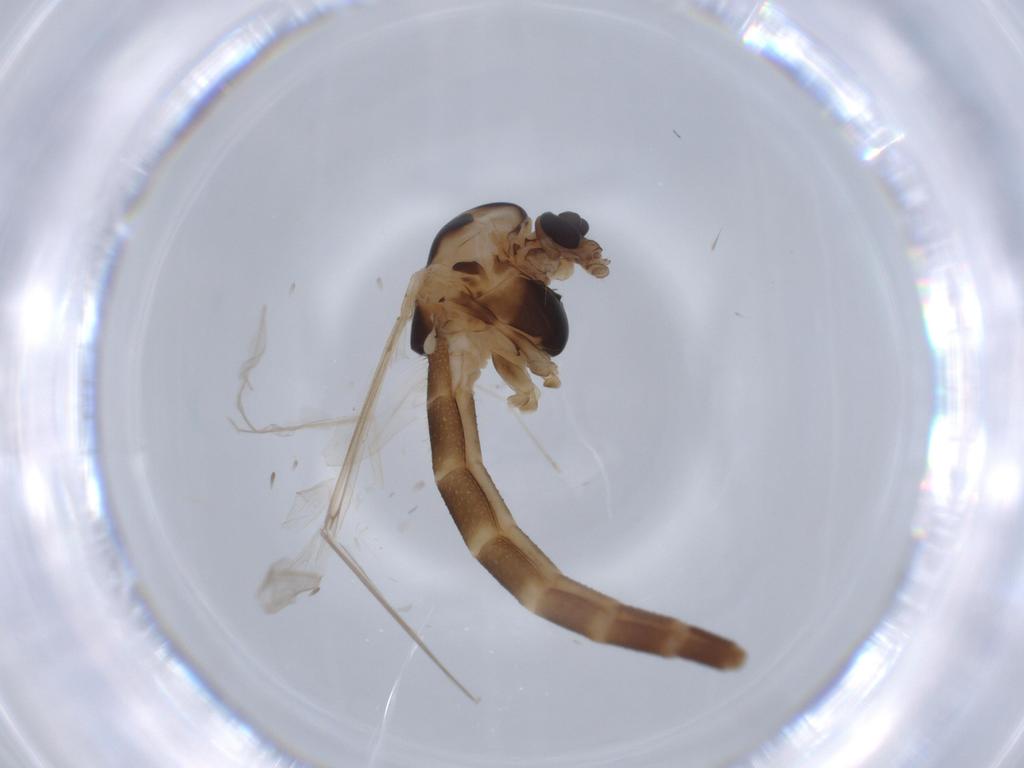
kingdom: Animalia
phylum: Arthropoda
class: Insecta
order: Diptera
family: Chironomidae
